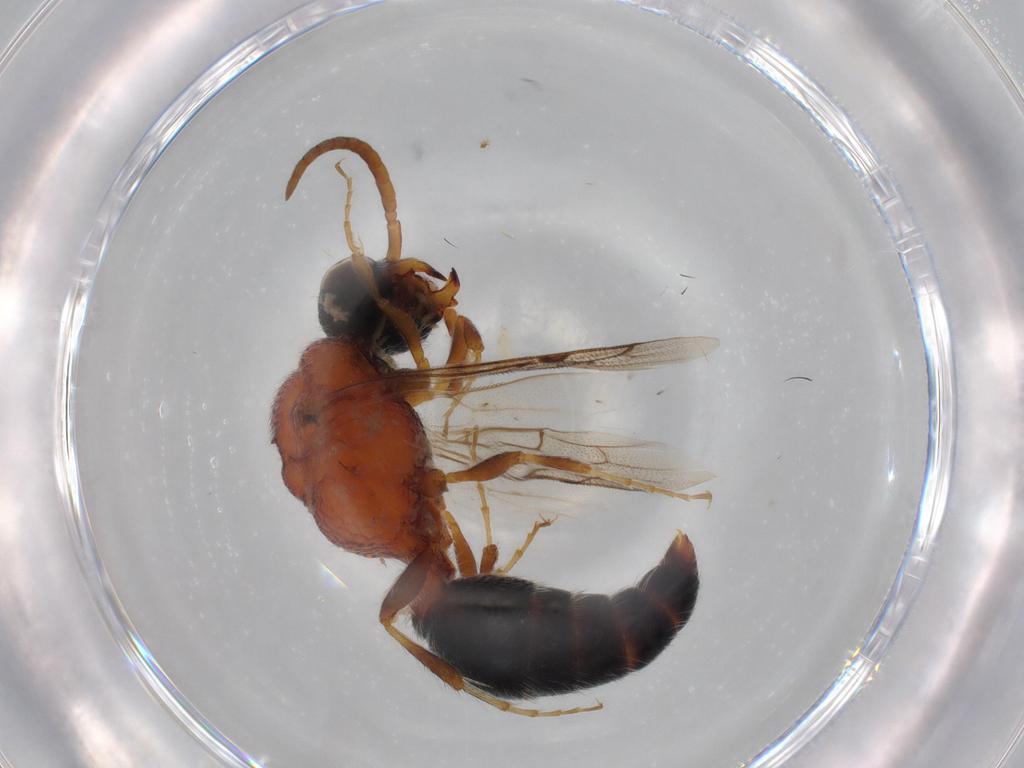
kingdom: Animalia
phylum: Arthropoda
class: Insecta
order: Hymenoptera
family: Mutillidae
